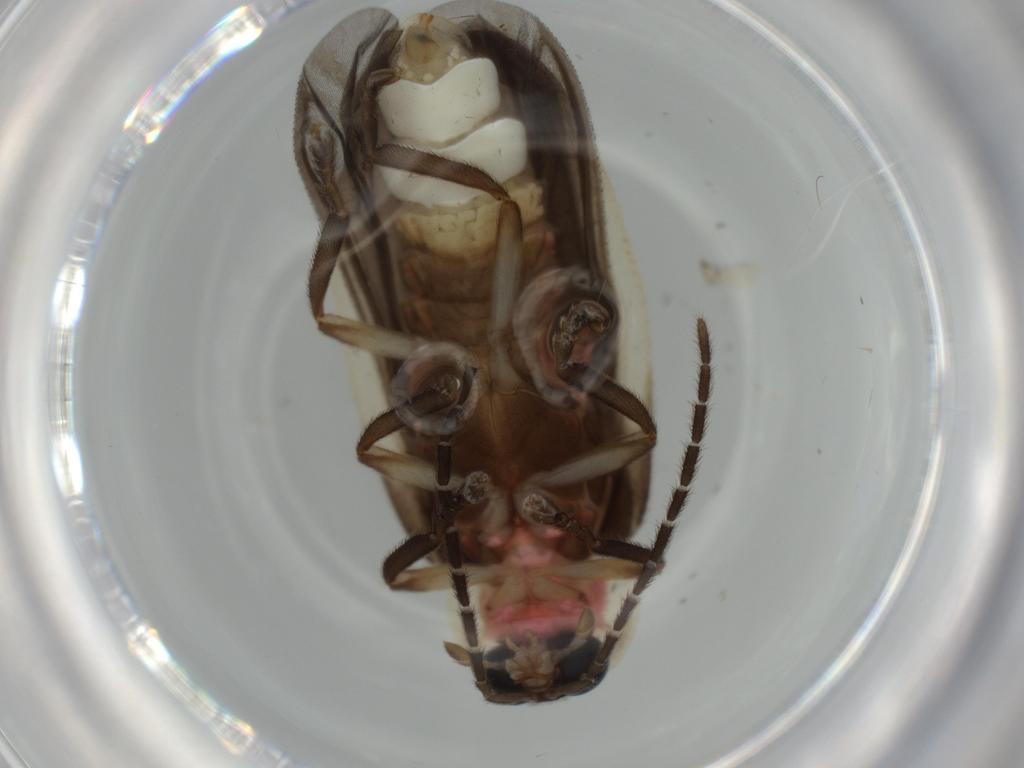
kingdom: Animalia
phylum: Arthropoda
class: Insecta
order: Coleoptera
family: Lampyridae
